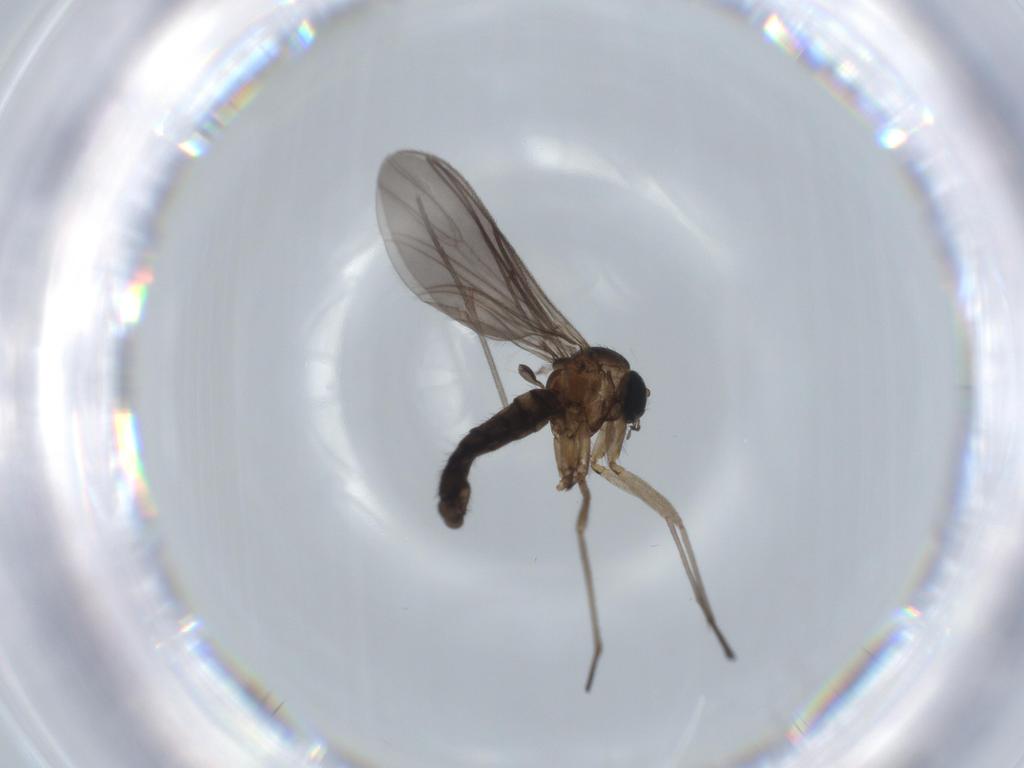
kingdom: Animalia
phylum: Arthropoda
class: Insecta
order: Diptera
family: Sciaridae
